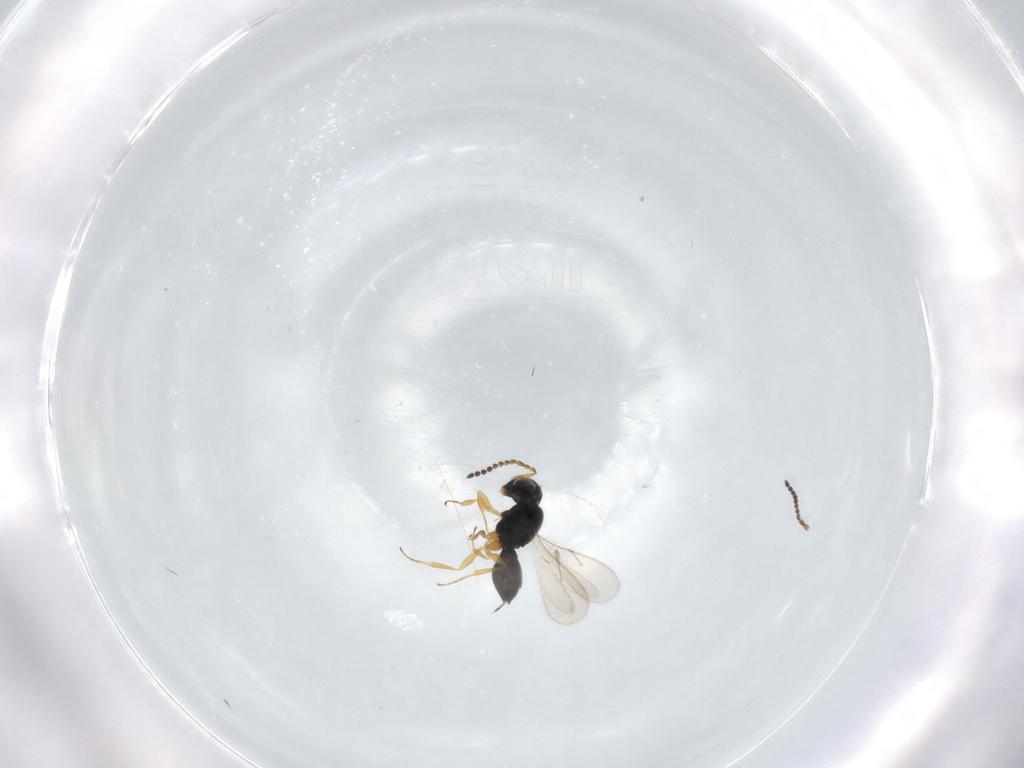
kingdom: Animalia
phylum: Arthropoda
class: Insecta
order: Hymenoptera
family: Scelionidae
